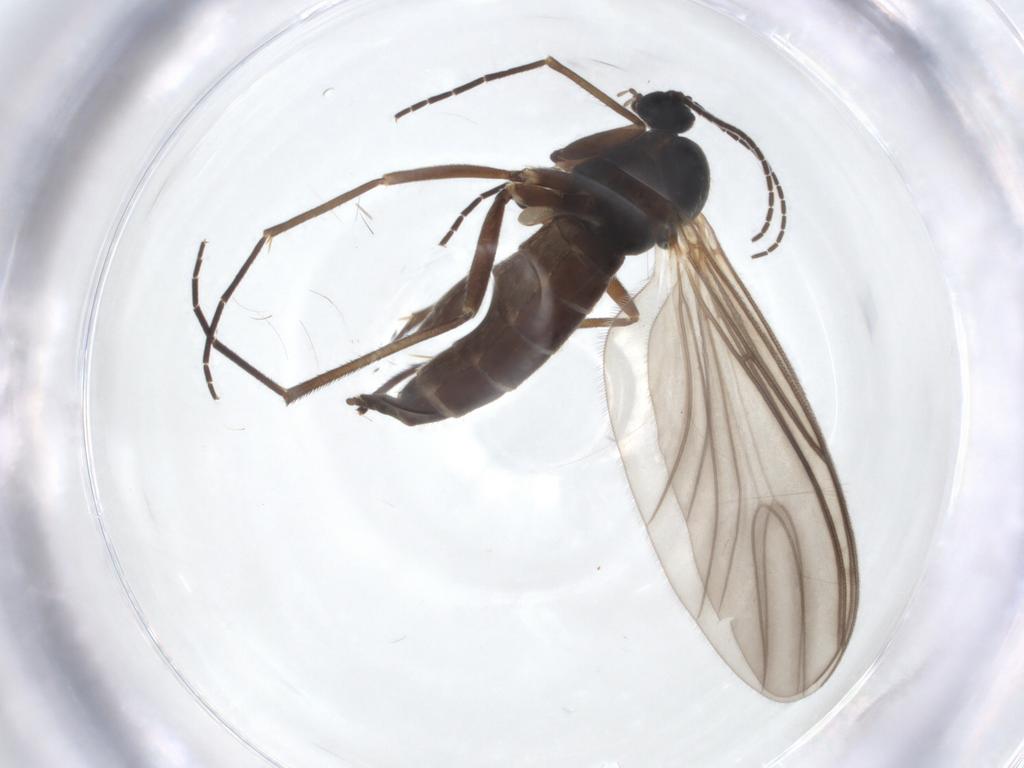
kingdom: Animalia
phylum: Arthropoda
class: Insecta
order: Diptera
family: Sciaridae
